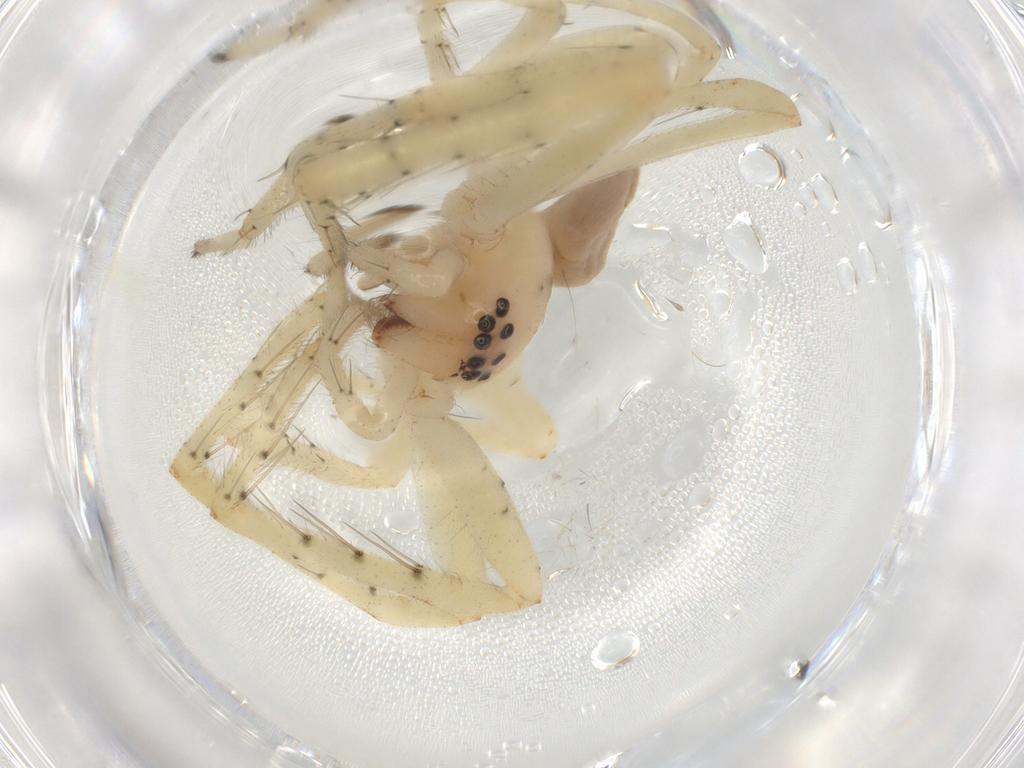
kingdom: Animalia
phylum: Arthropoda
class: Arachnida
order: Araneae
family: Sparassidae
